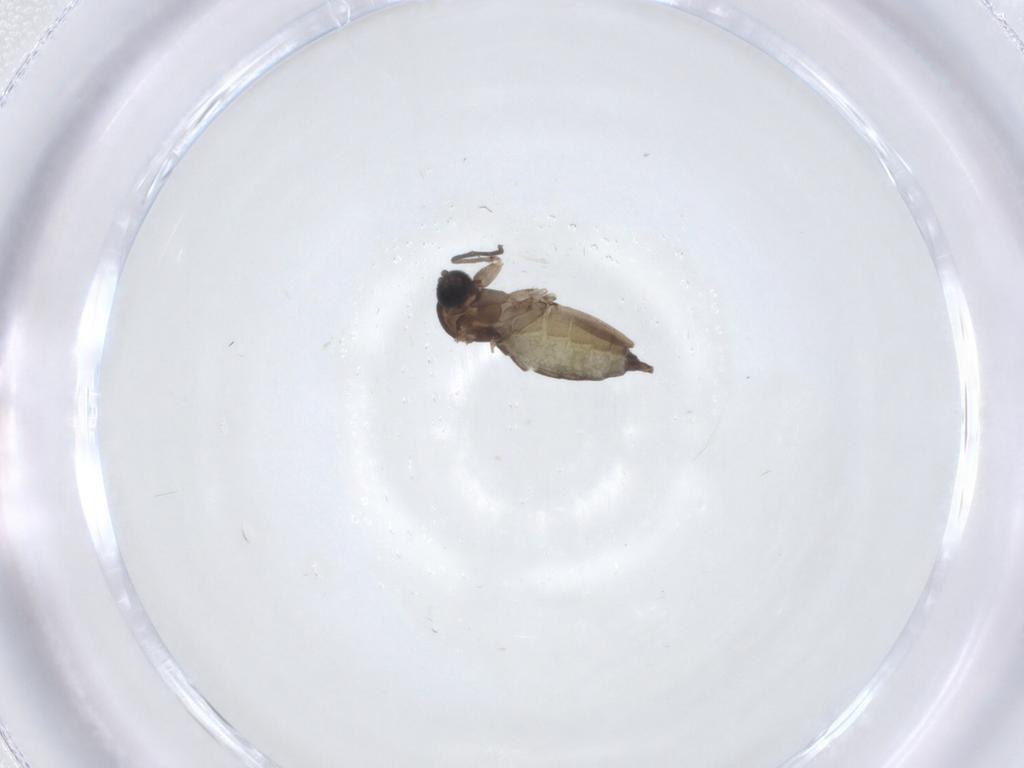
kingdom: Animalia
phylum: Arthropoda
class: Insecta
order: Diptera
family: Sciaridae
